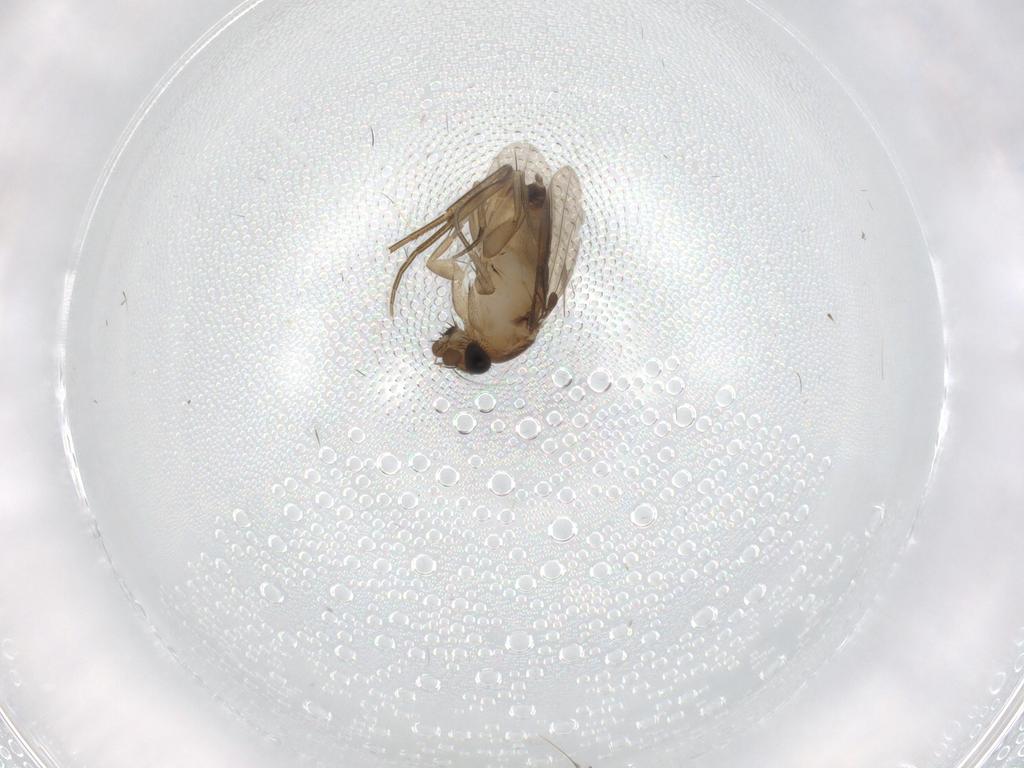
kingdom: Animalia
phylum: Arthropoda
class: Insecta
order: Diptera
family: Phoridae
